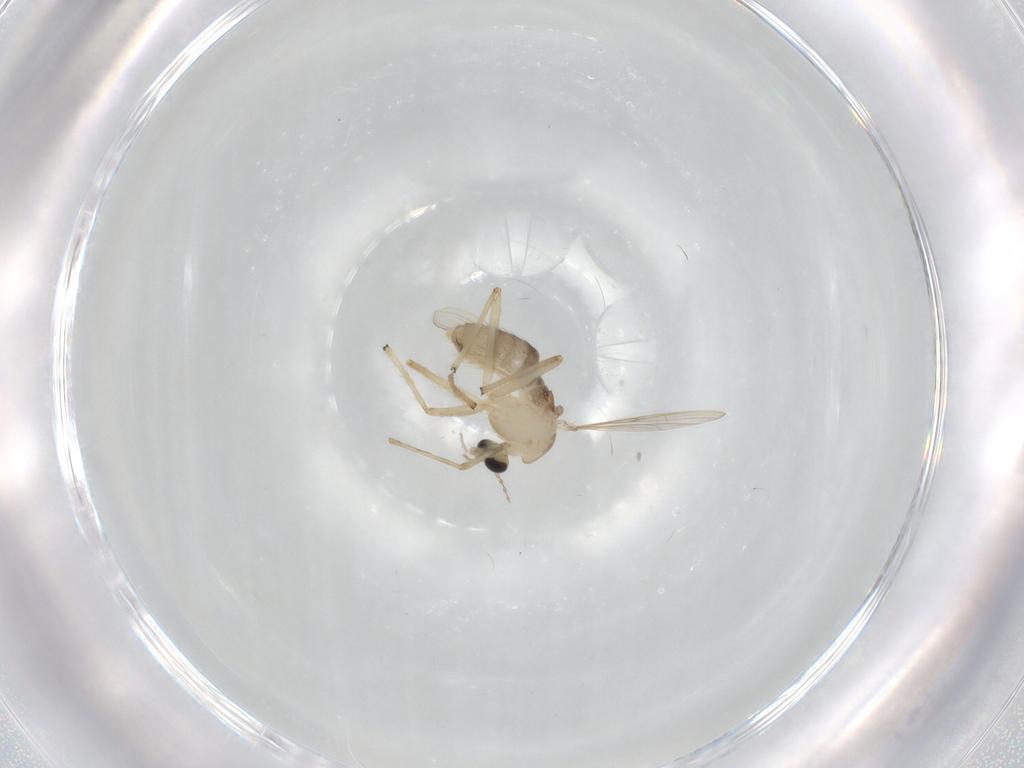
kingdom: Animalia
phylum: Arthropoda
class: Insecta
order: Diptera
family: Chironomidae
